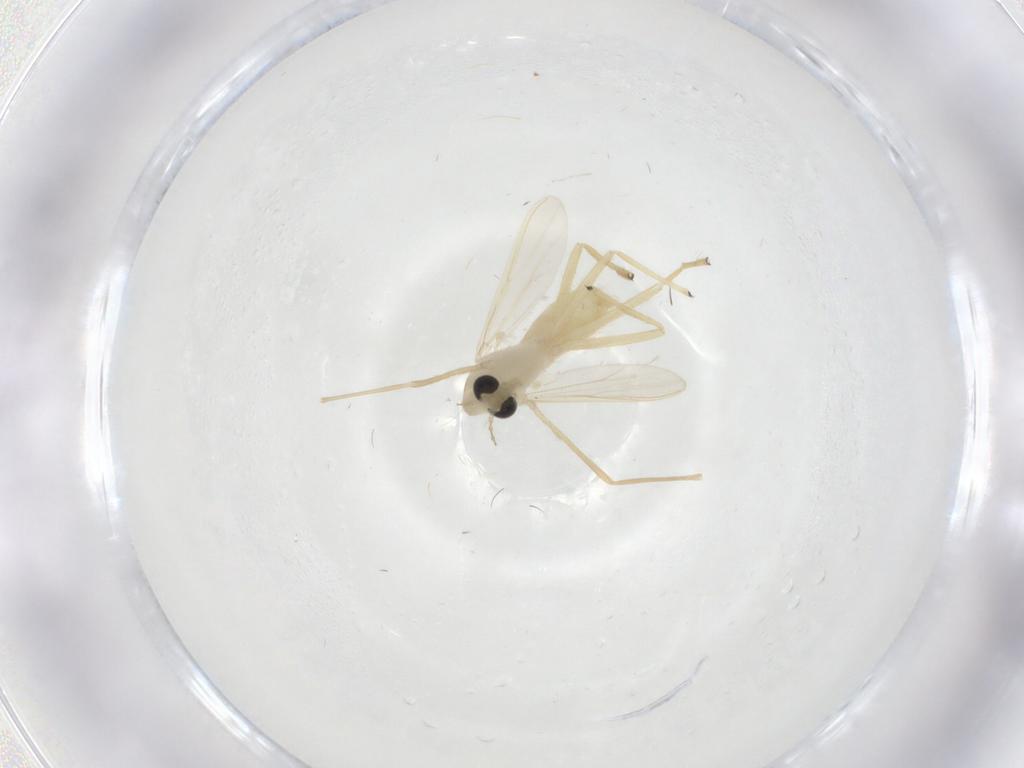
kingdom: Animalia
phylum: Arthropoda
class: Insecta
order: Diptera
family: Chironomidae
